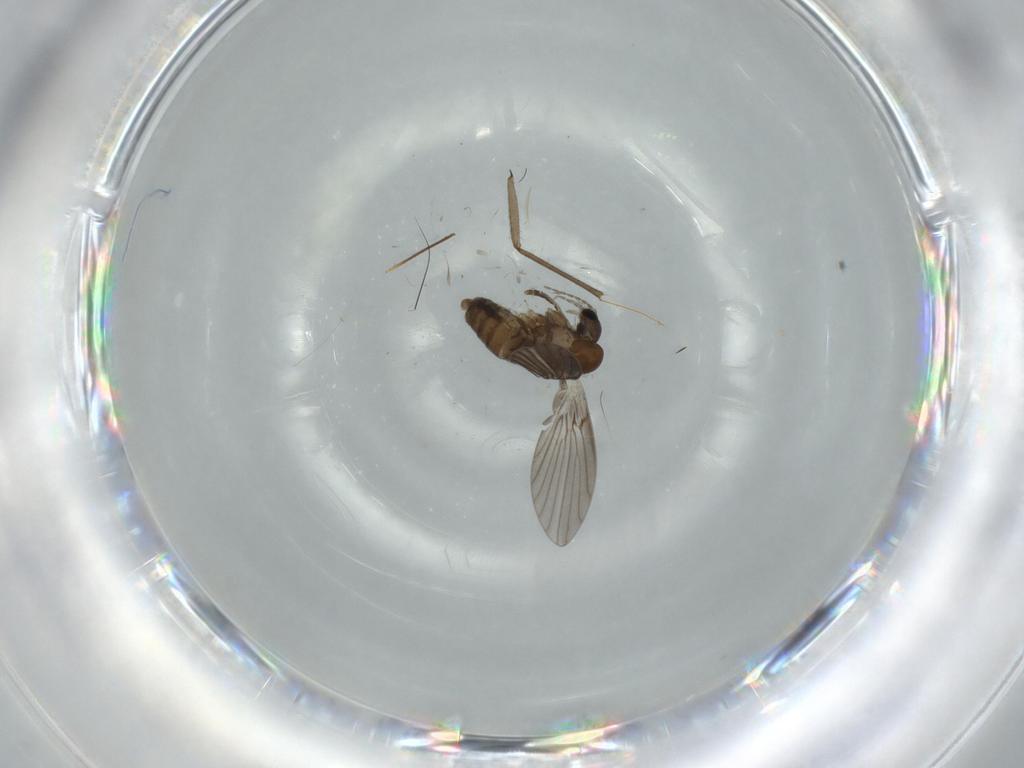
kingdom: Animalia
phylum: Arthropoda
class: Insecta
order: Diptera
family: Psychodidae
